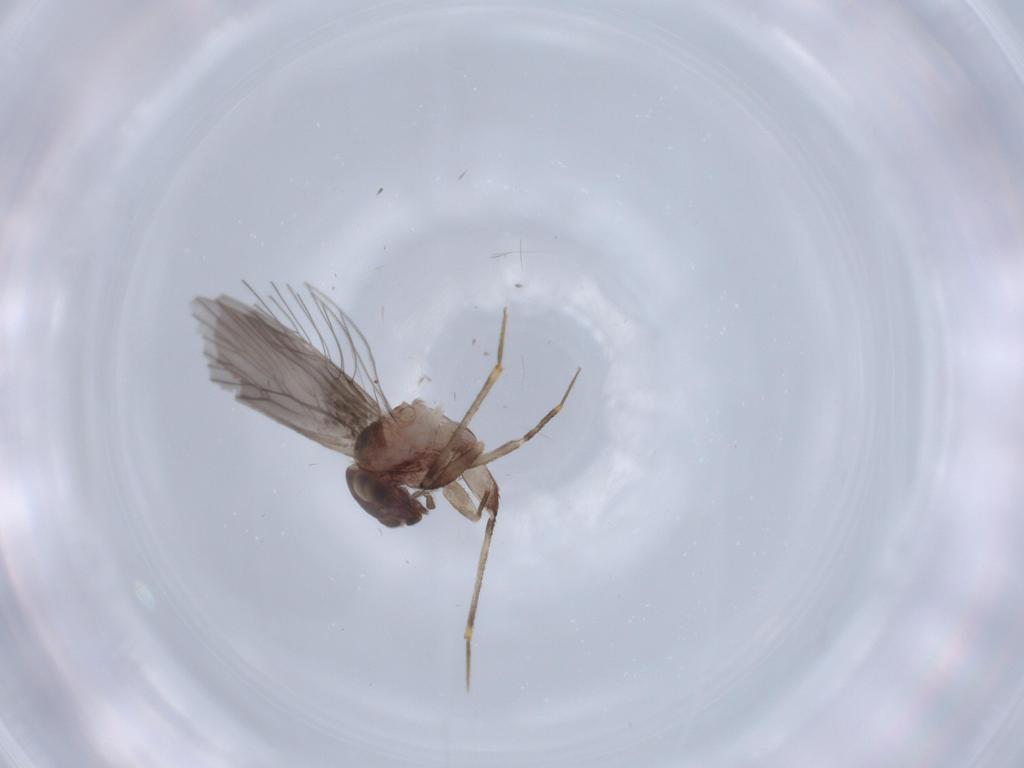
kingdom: Animalia
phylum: Arthropoda
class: Insecta
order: Psocodea
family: Lepidopsocidae
